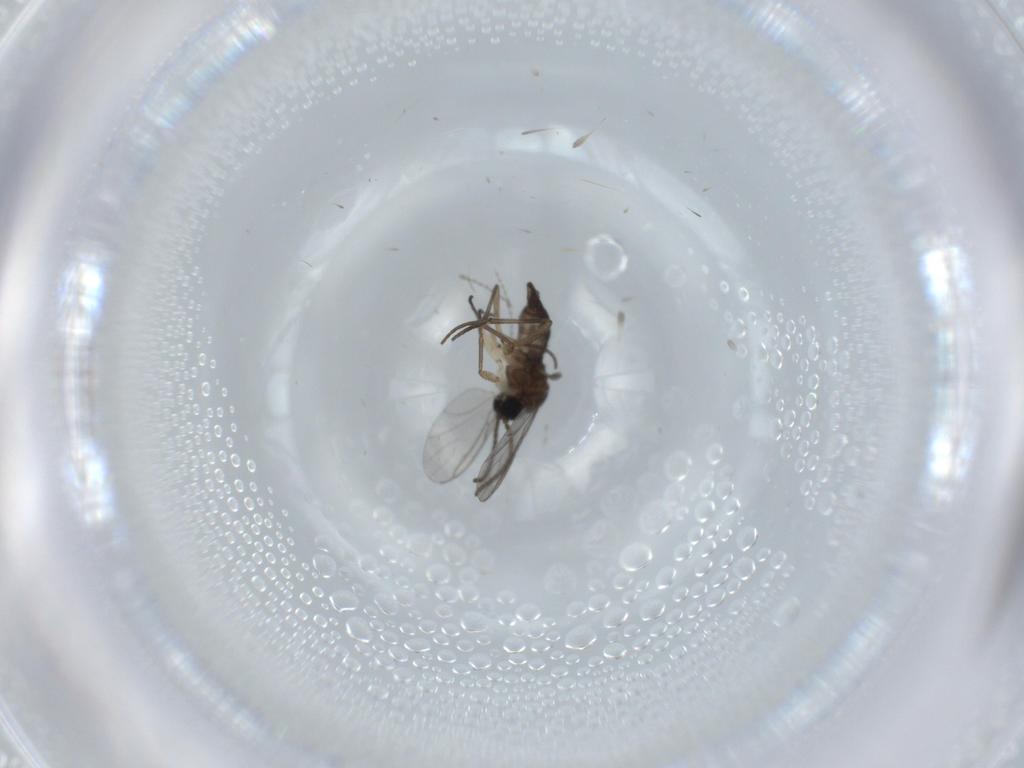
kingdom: Animalia
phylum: Arthropoda
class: Insecta
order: Diptera
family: Sciaridae
